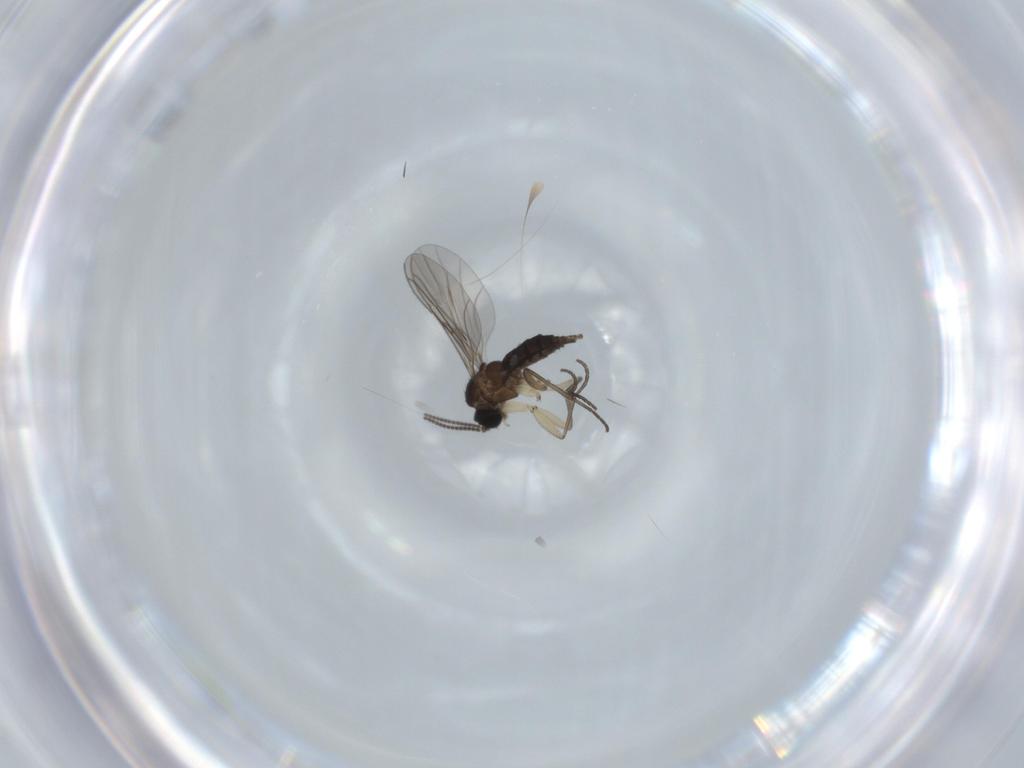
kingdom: Animalia
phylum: Arthropoda
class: Insecta
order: Diptera
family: Sciaridae
